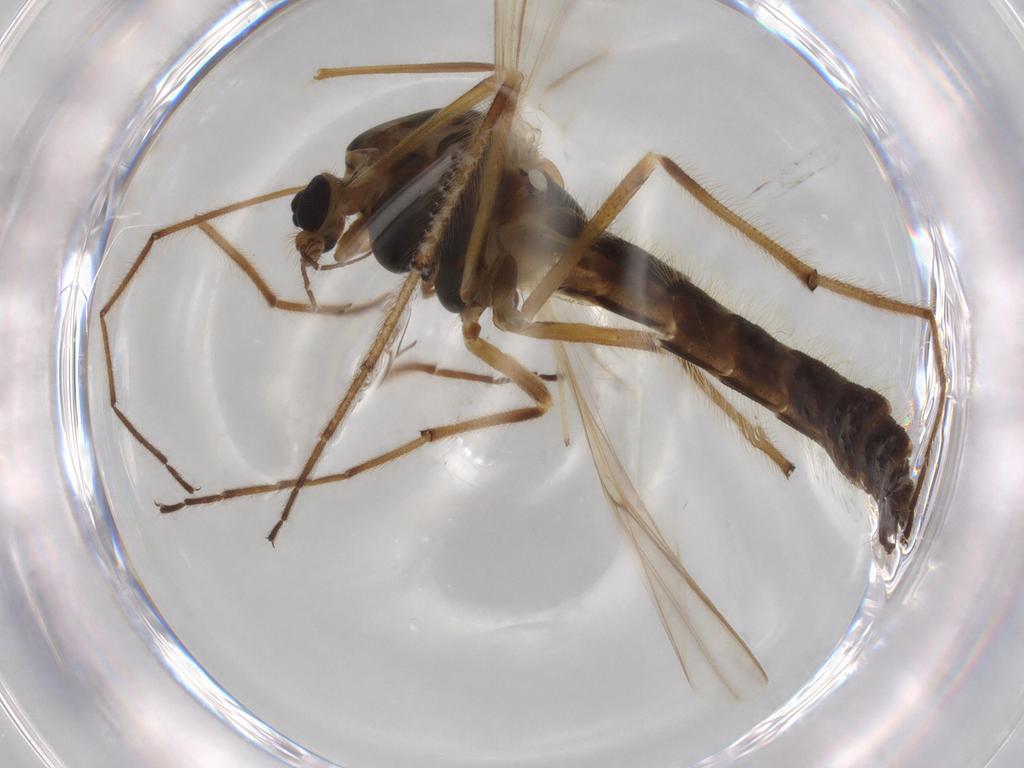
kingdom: Animalia
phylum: Arthropoda
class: Insecta
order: Diptera
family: Chironomidae
